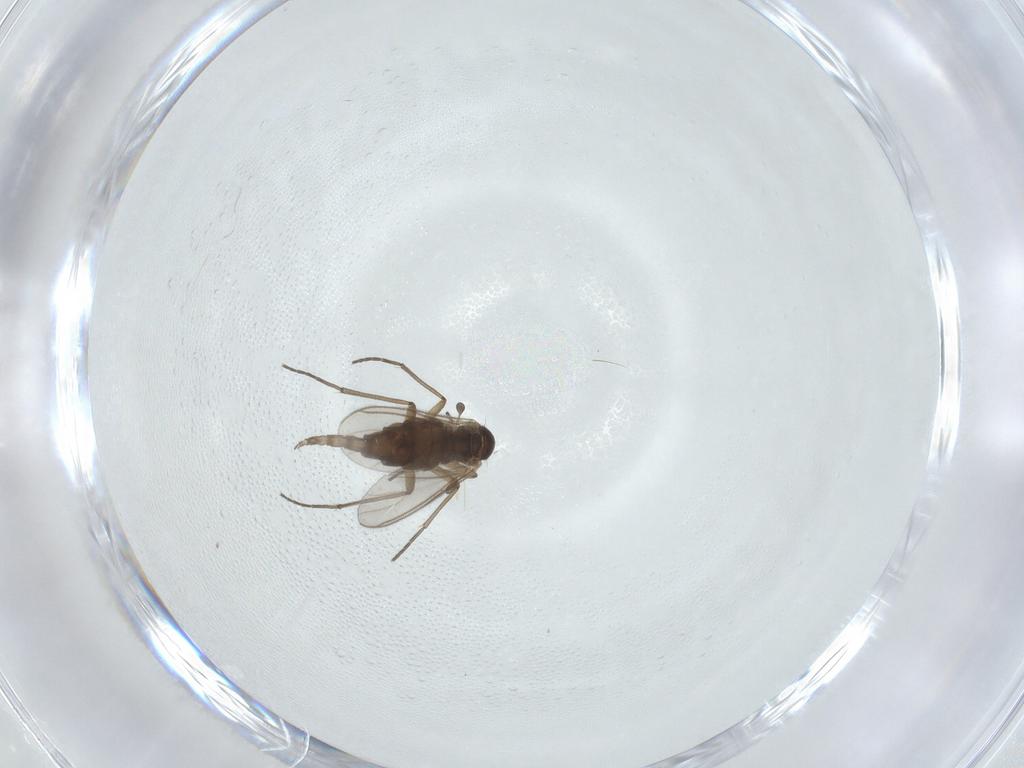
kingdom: Animalia
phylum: Arthropoda
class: Insecta
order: Diptera
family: Sciaridae
